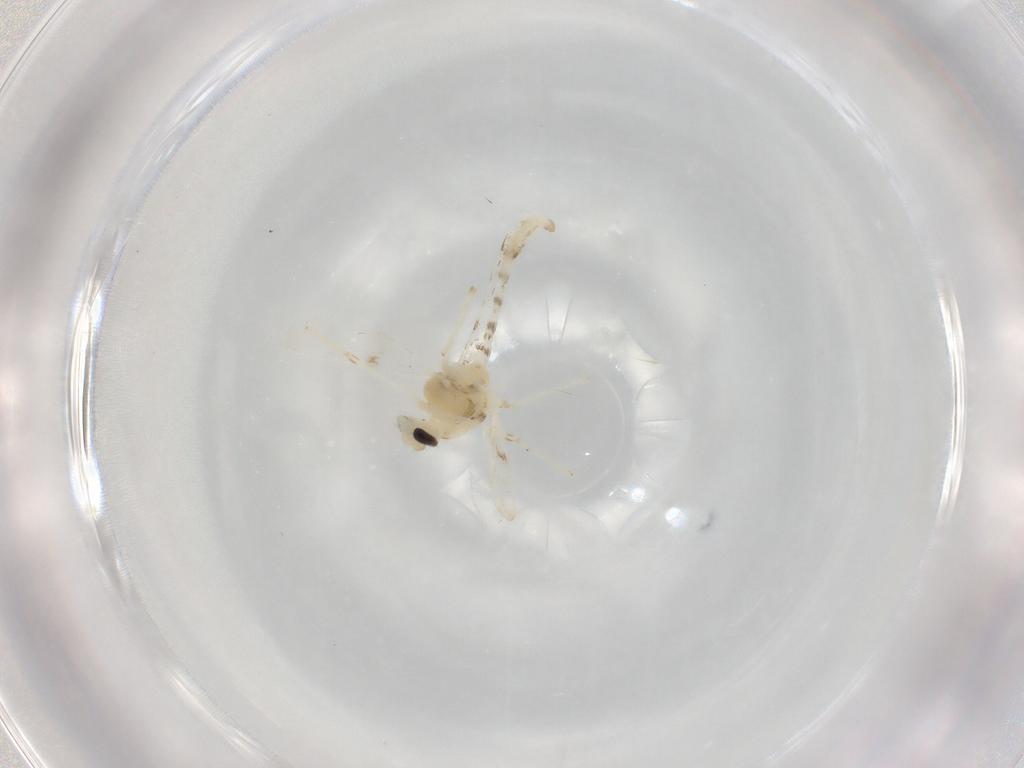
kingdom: Animalia
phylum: Arthropoda
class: Insecta
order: Diptera
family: Chironomidae
